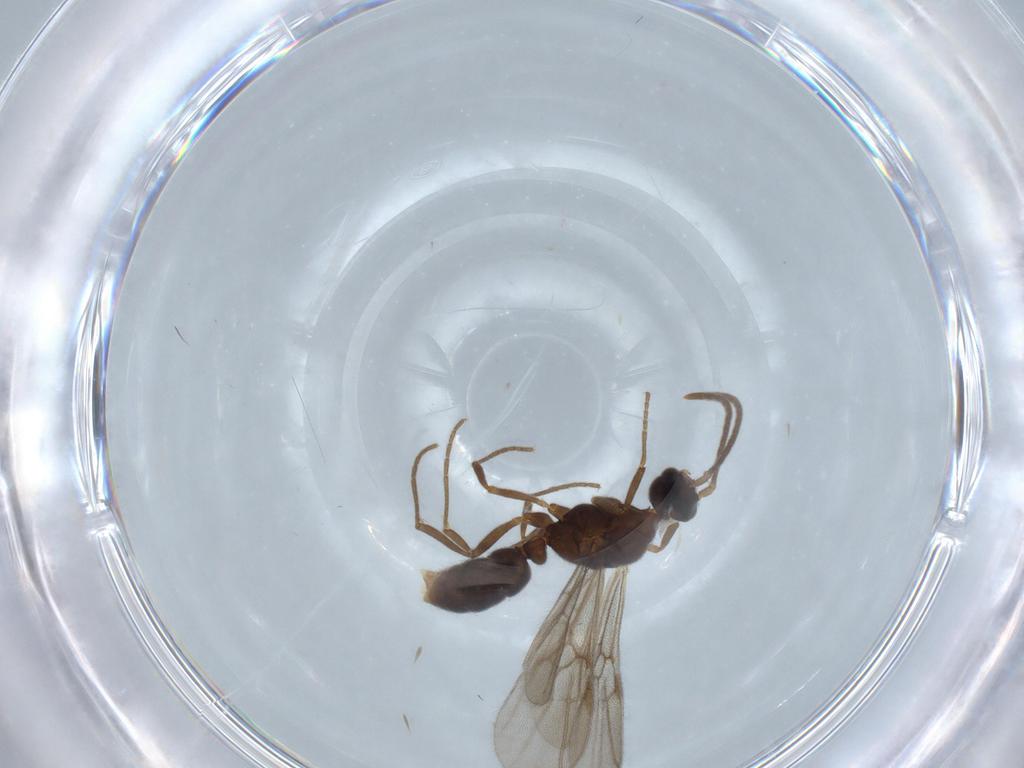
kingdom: Animalia
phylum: Arthropoda
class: Insecta
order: Hymenoptera
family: Formicidae
